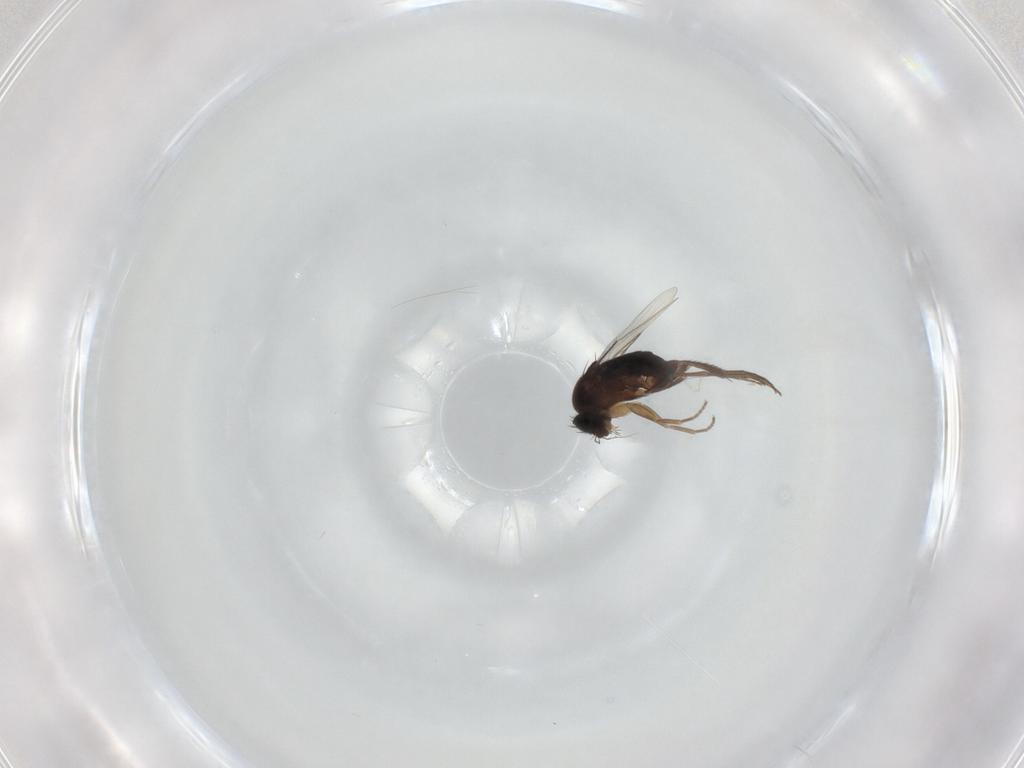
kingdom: Animalia
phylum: Arthropoda
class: Insecta
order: Diptera
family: Phoridae
